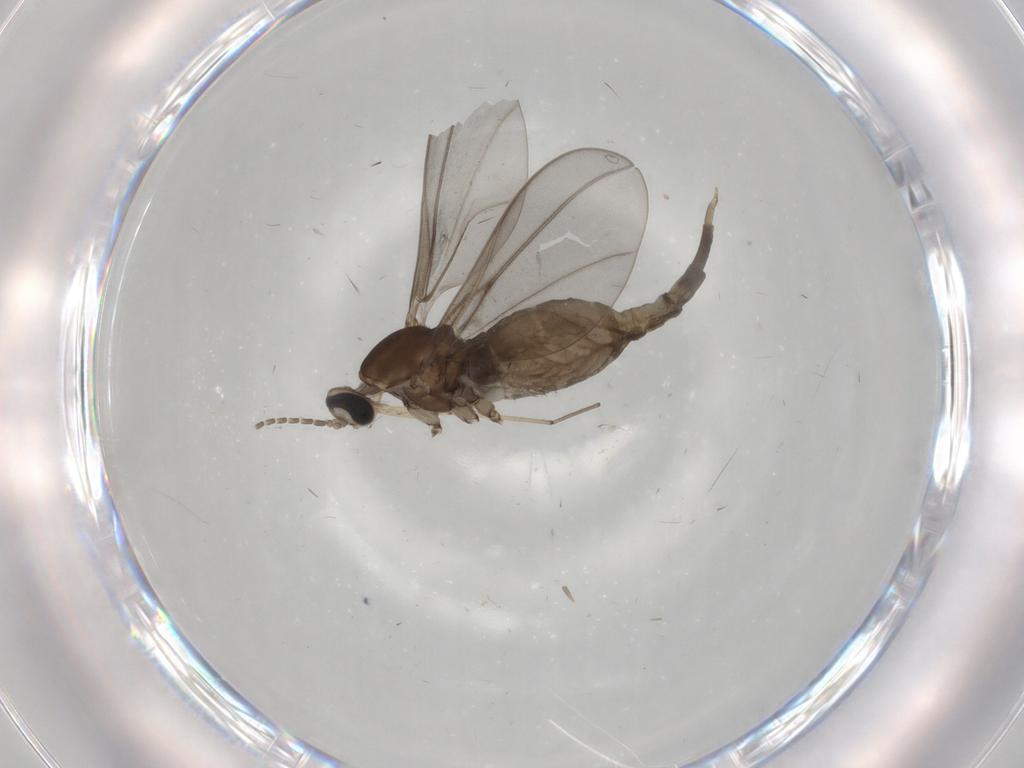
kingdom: Animalia
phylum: Arthropoda
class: Insecta
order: Diptera
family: Cecidomyiidae
